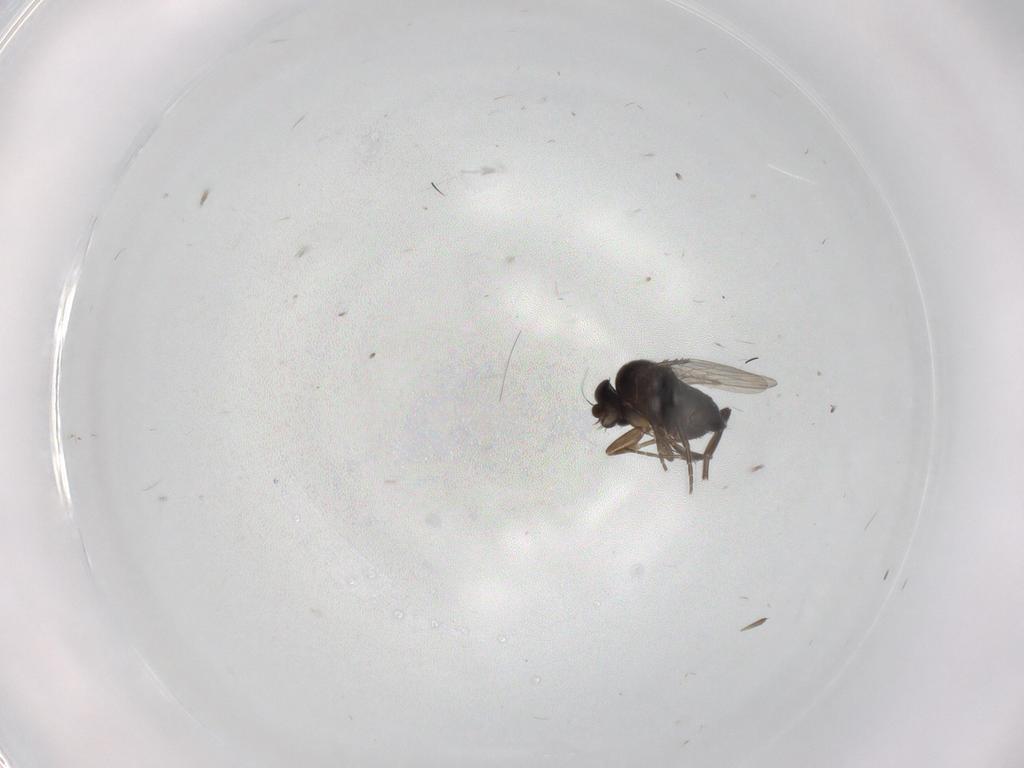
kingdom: Animalia
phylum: Arthropoda
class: Insecta
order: Diptera
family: Phoridae
